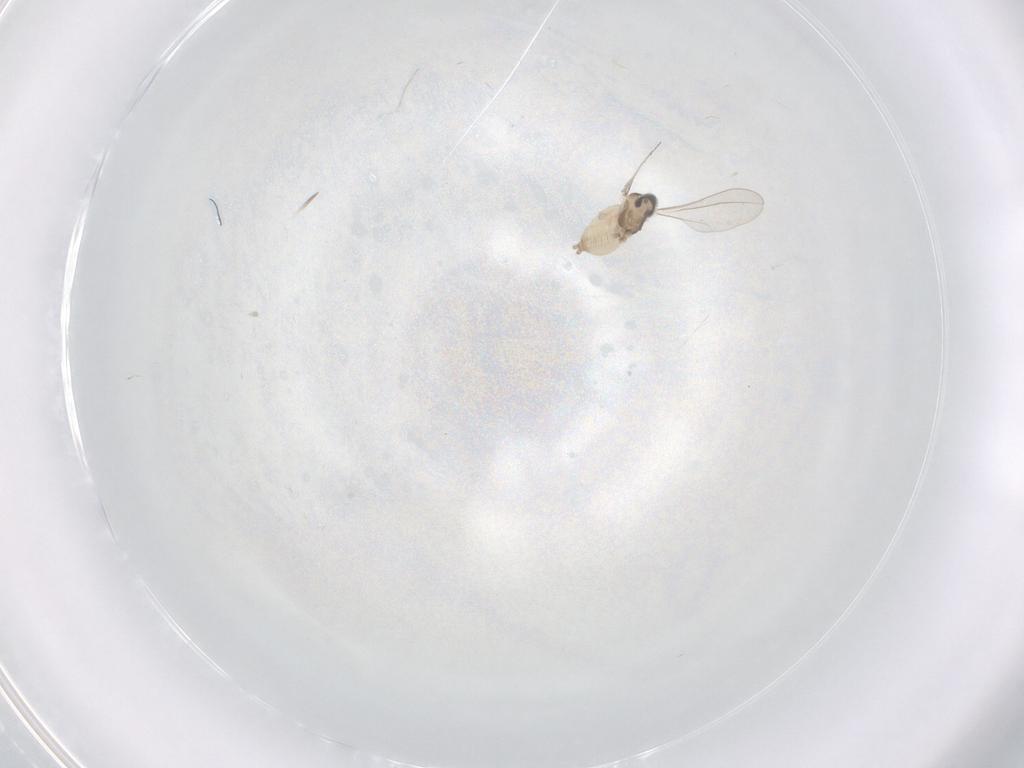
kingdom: Animalia
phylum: Arthropoda
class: Insecta
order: Diptera
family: Cecidomyiidae
